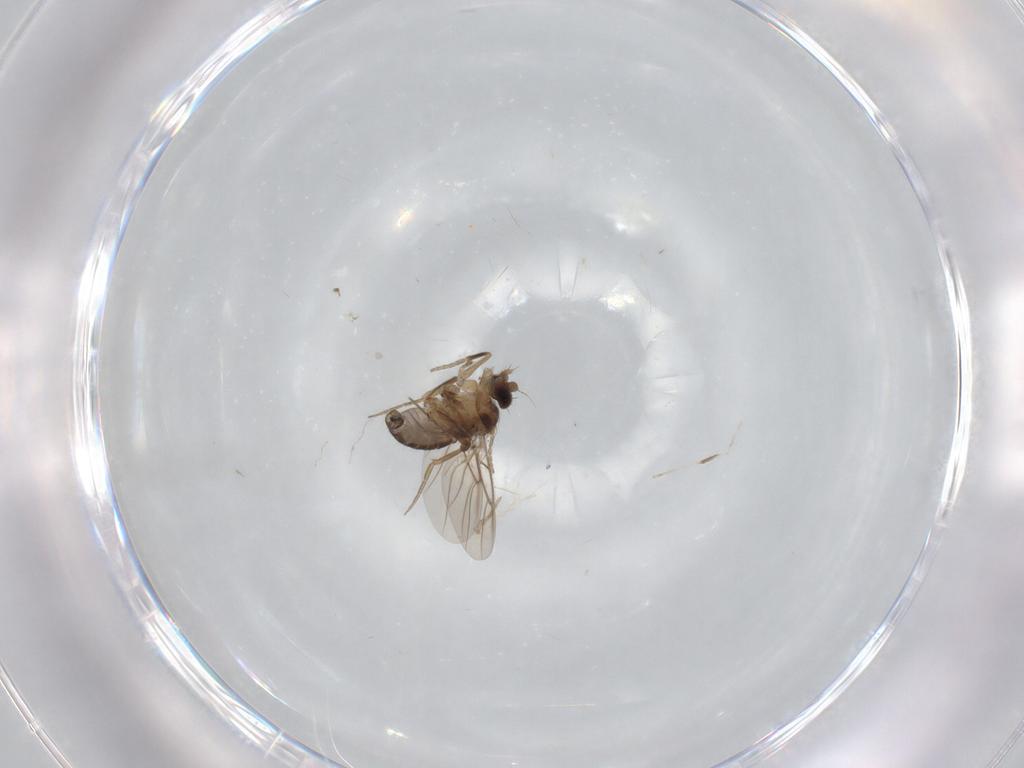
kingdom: Animalia
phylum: Arthropoda
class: Insecta
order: Diptera
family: Phoridae
